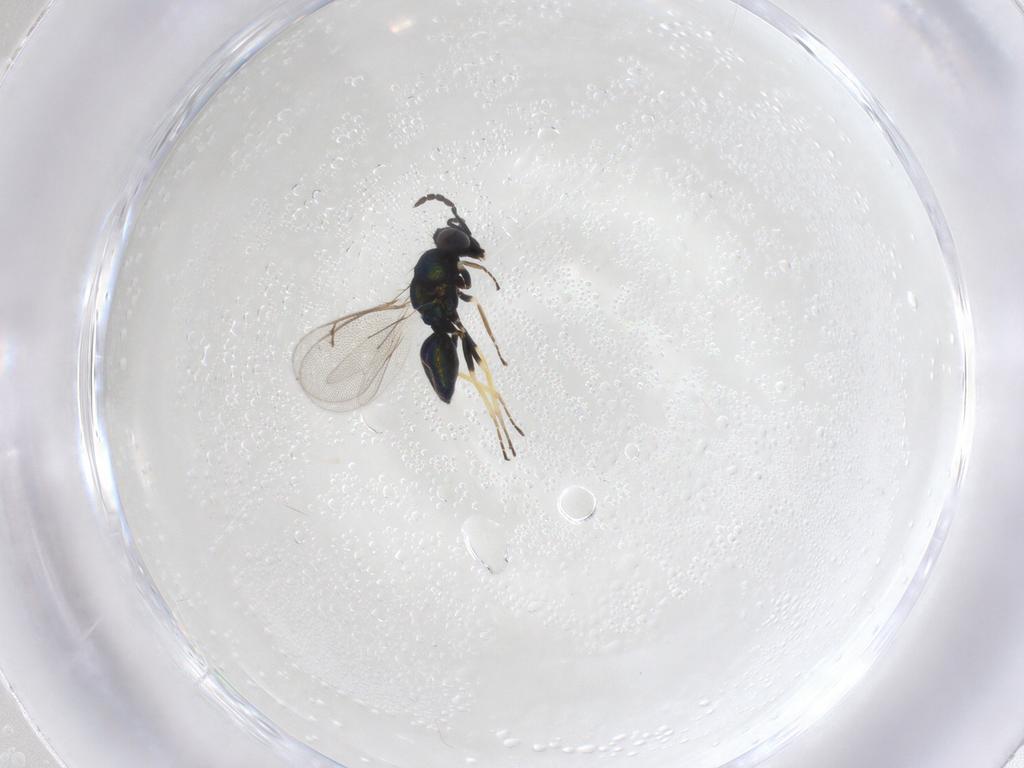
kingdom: Animalia
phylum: Arthropoda
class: Insecta
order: Hymenoptera
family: Eulophidae
